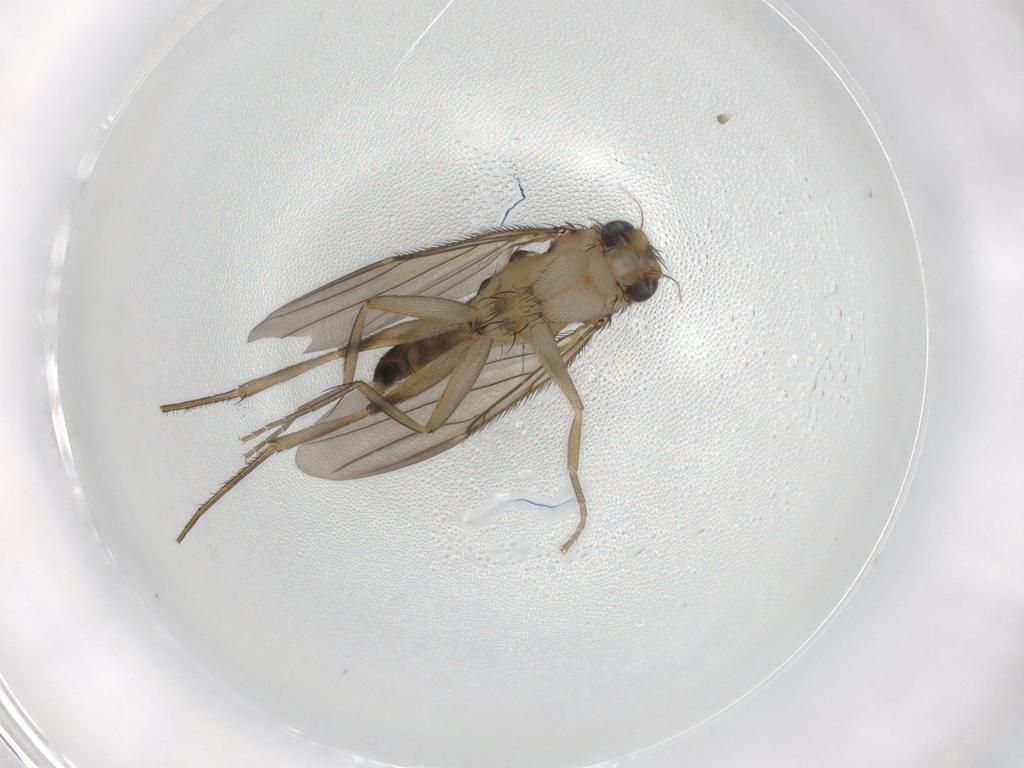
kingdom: Animalia
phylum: Arthropoda
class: Insecta
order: Diptera
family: Phoridae
